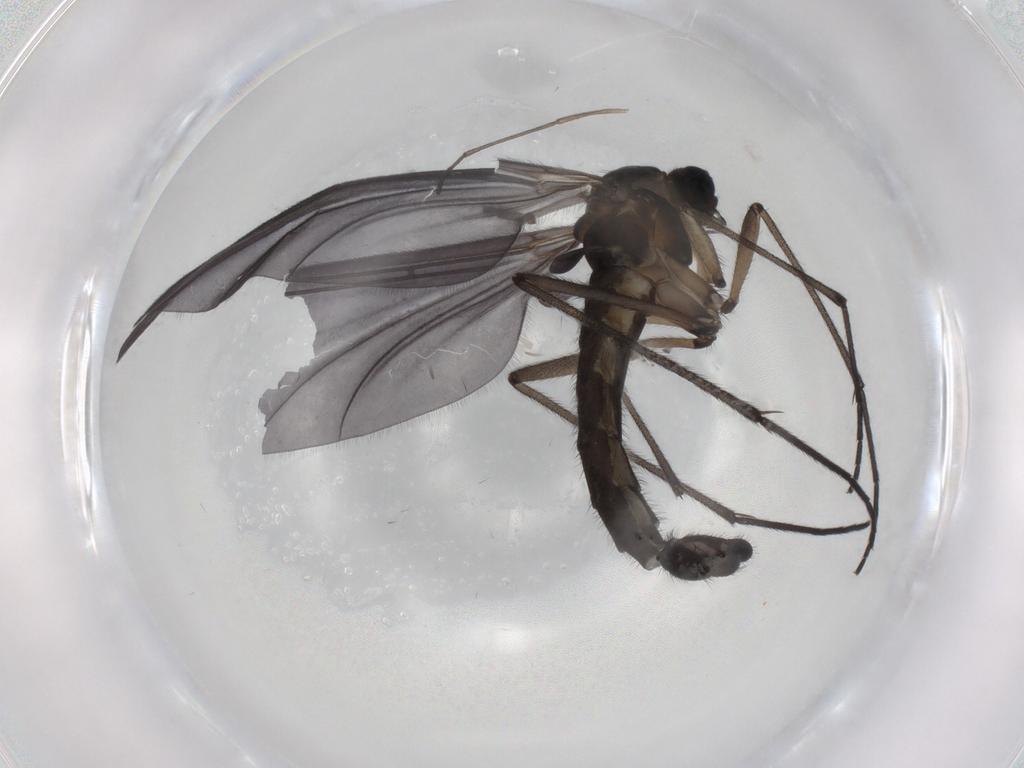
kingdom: Animalia
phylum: Arthropoda
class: Insecta
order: Diptera
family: Sciaridae
